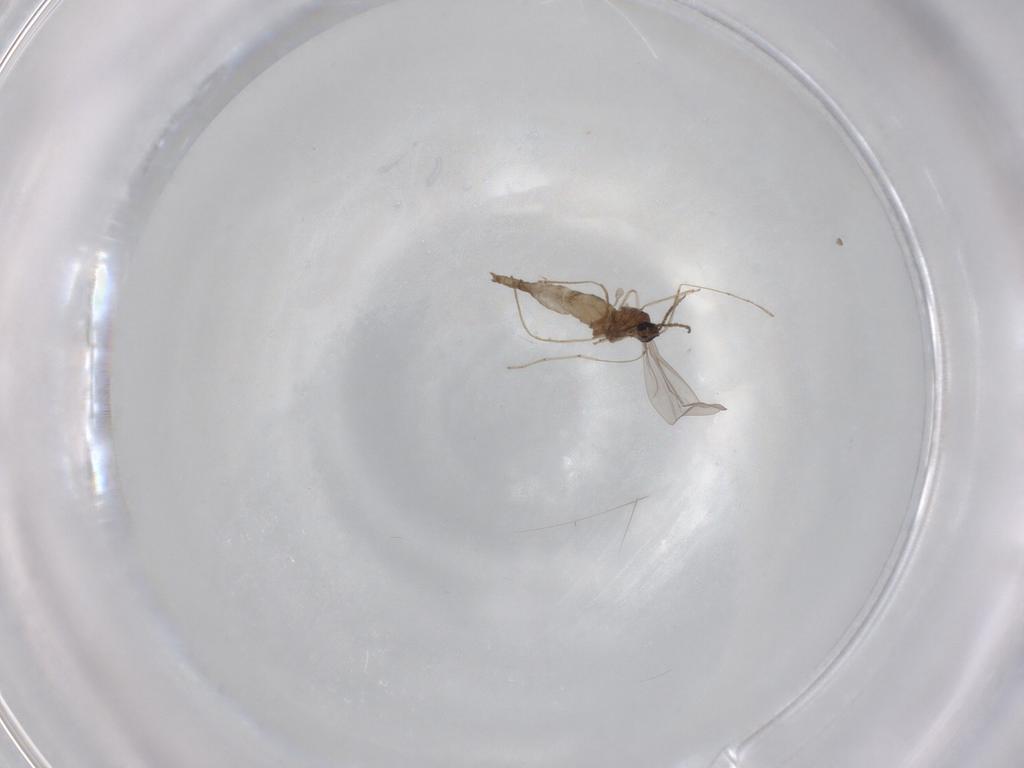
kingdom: Animalia
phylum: Arthropoda
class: Insecta
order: Diptera
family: Cecidomyiidae
